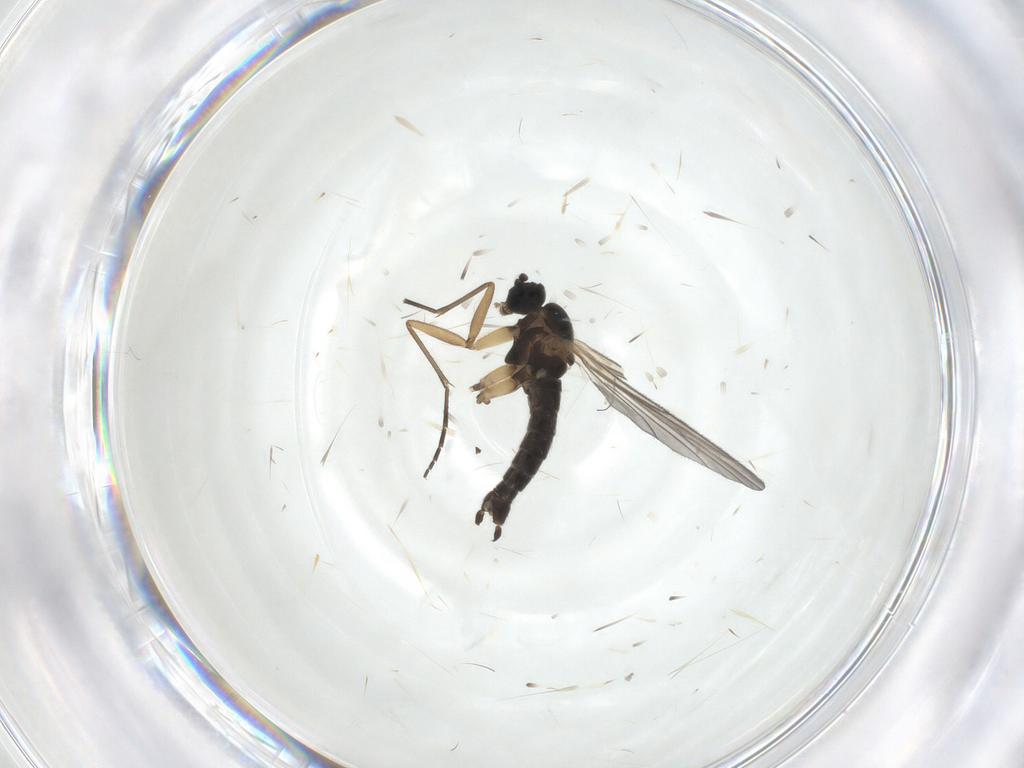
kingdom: Animalia
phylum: Arthropoda
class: Insecta
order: Diptera
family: Sciaridae
